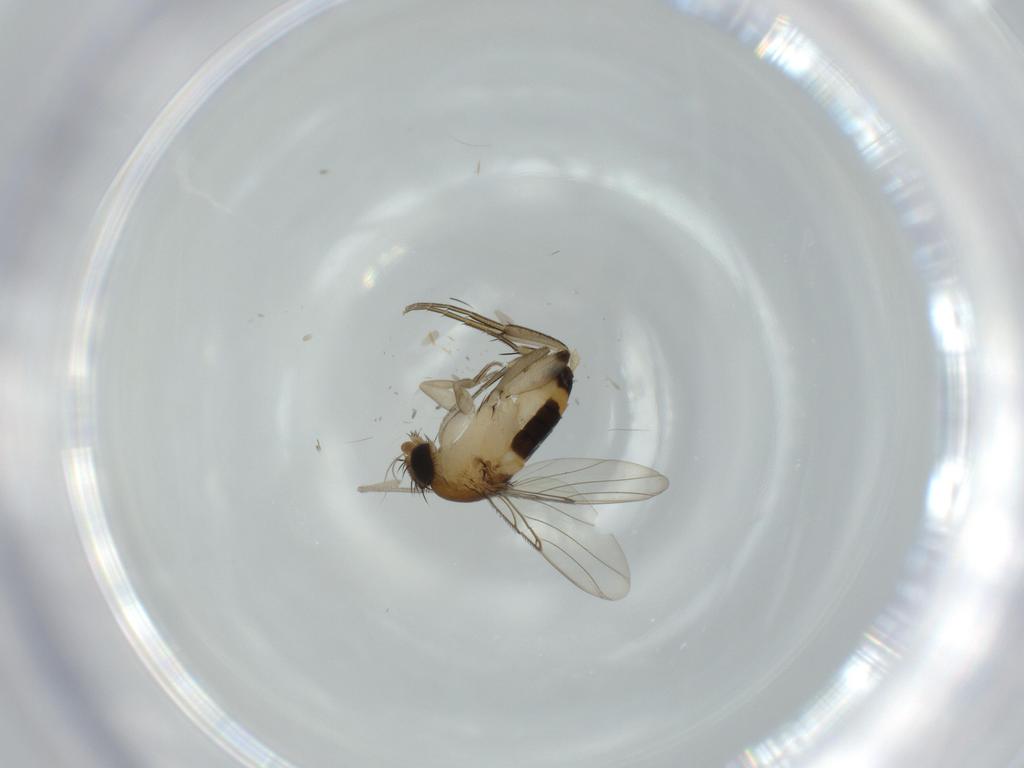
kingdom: Animalia
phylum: Arthropoda
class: Insecta
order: Diptera
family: Chironomidae
